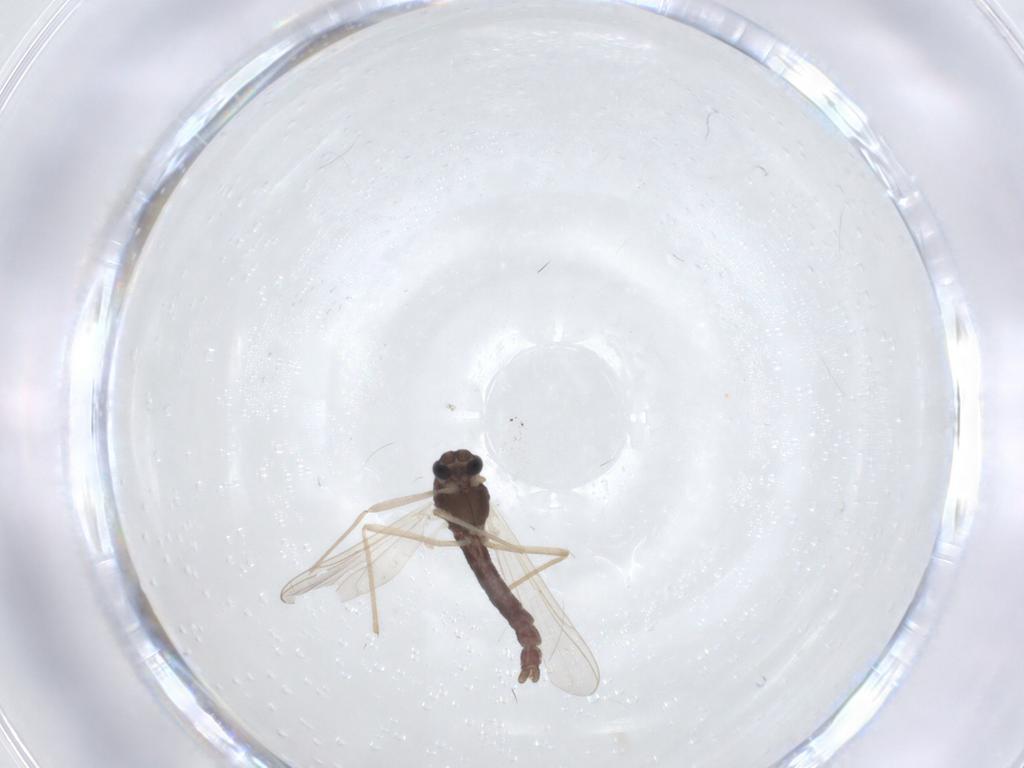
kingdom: Animalia
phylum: Arthropoda
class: Insecta
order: Diptera
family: Chironomidae
